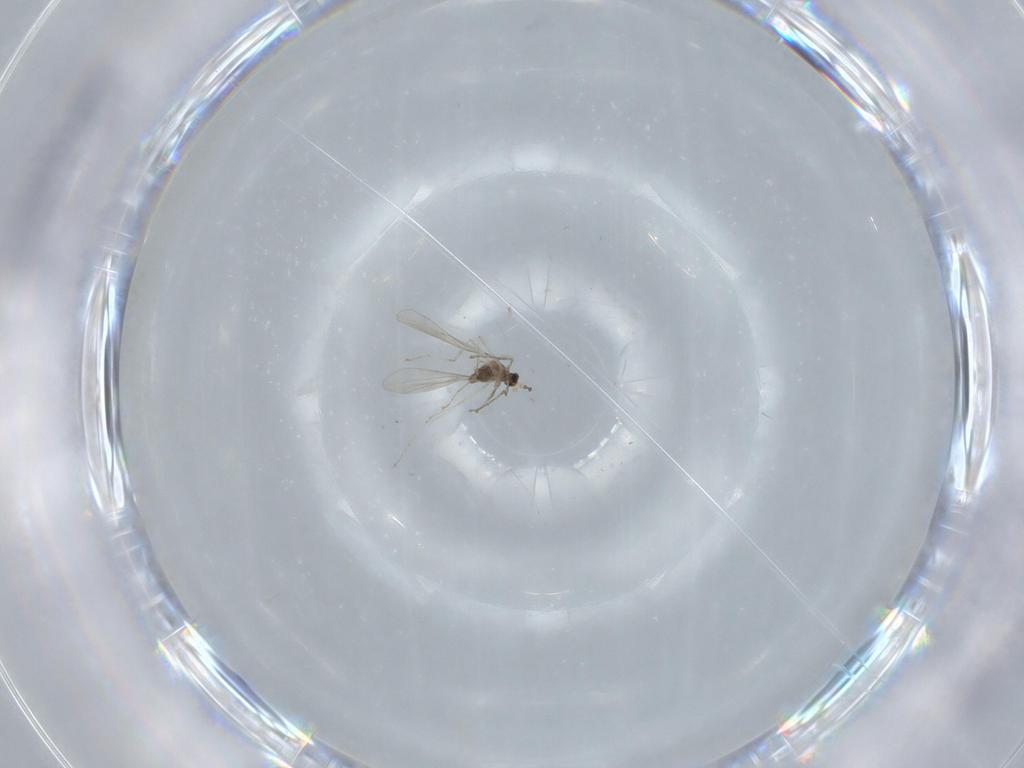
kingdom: Animalia
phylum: Arthropoda
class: Insecta
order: Diptera
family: Cecidomyiidae
